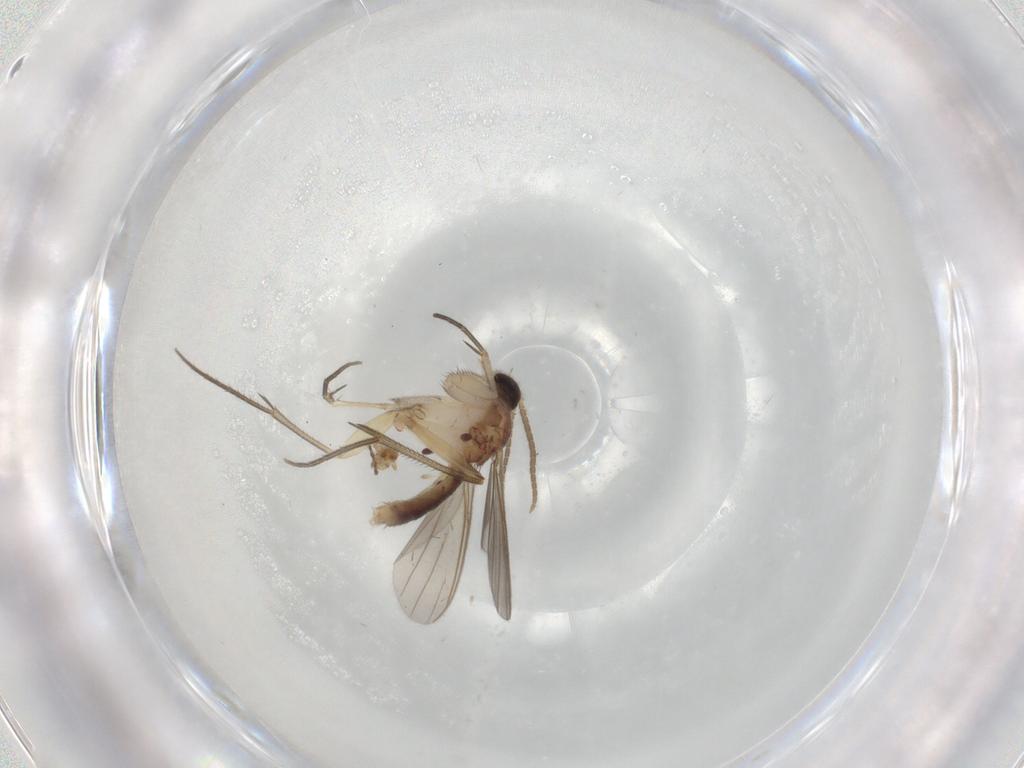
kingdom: Animalia
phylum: Arthropoda
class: Insecta
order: Diptera
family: Mycetophilidae
